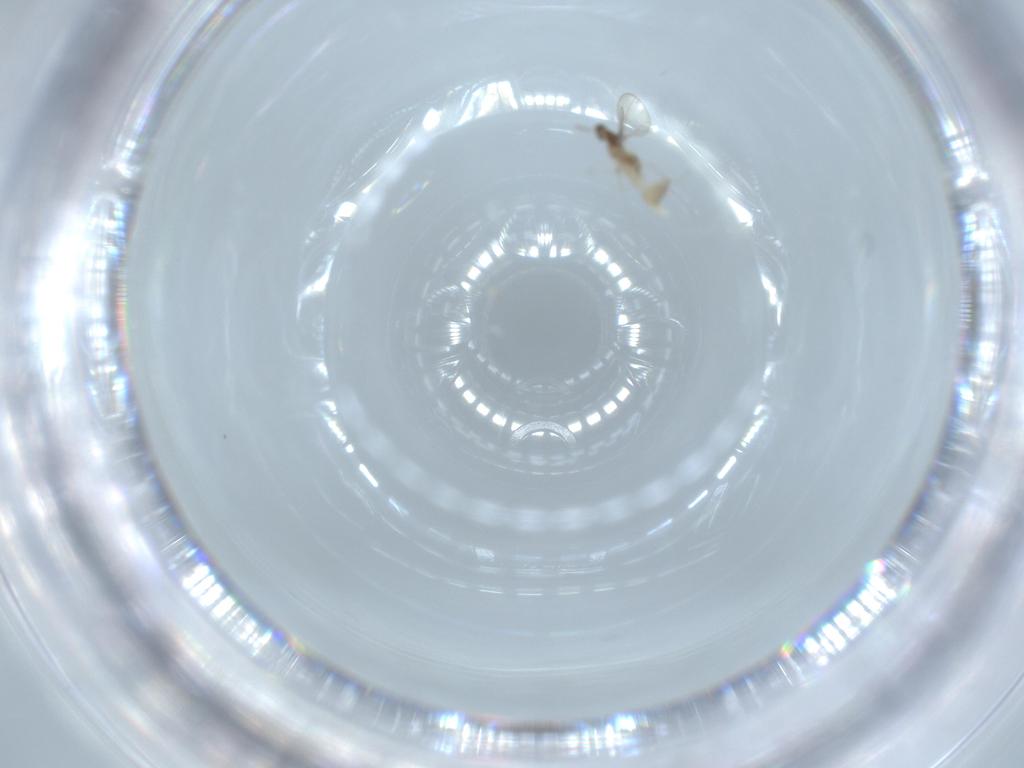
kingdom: Animalia
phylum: Arthropoda
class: Insecta
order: Diptera
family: Cecidomyiidae
